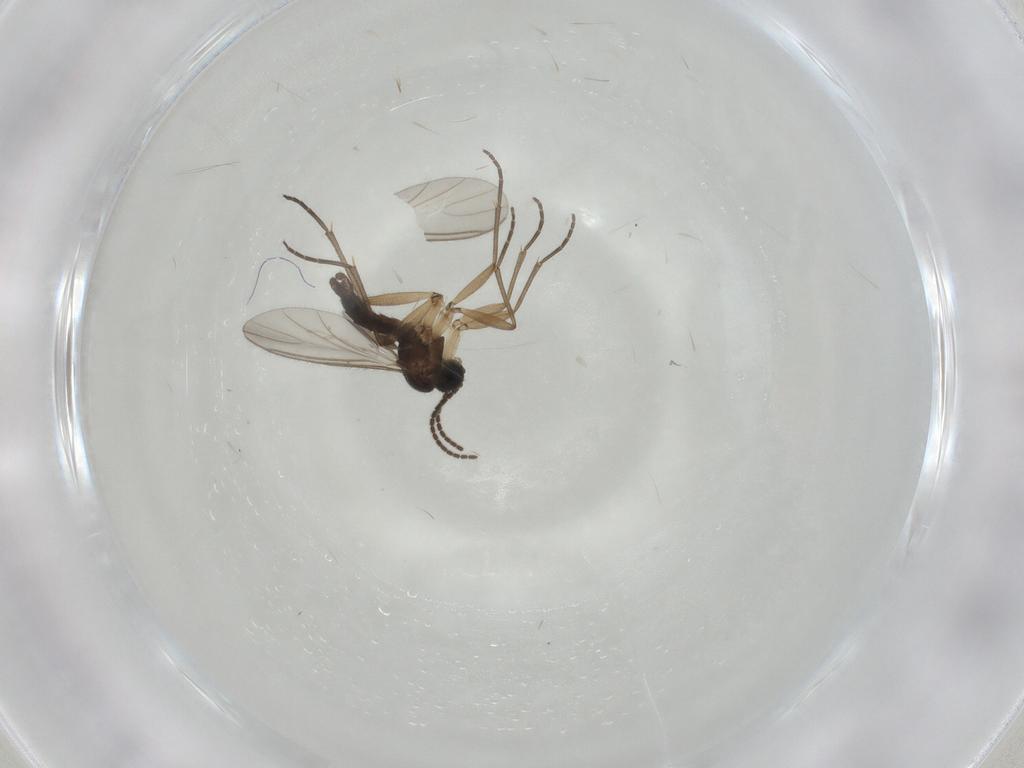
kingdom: Animalia
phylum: Arthropoda
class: Insecta
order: Diptera
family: Sciaridae
